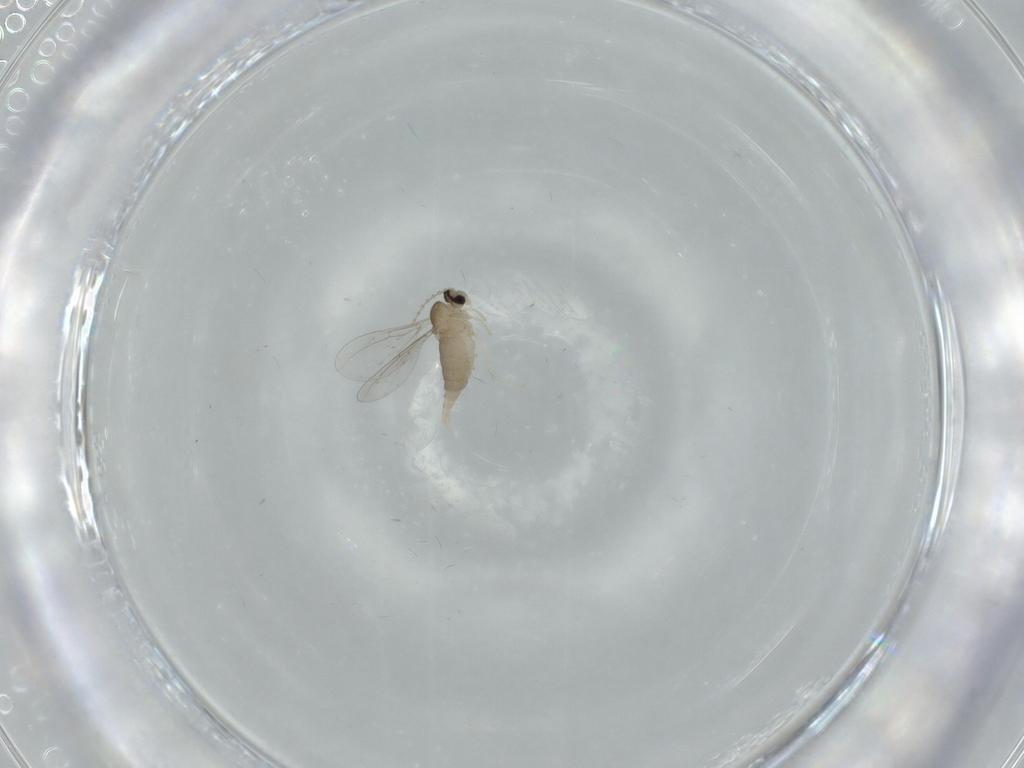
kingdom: Animalia
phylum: Arthropoda
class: Insecta
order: Diptera
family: Cecidomyiidae
